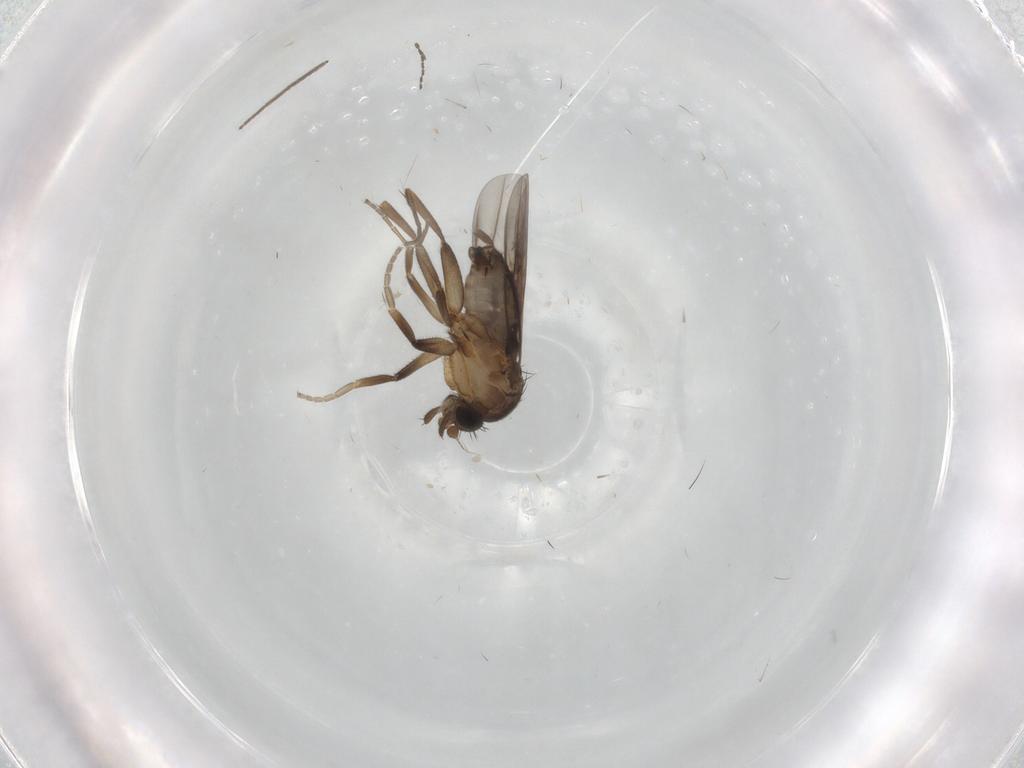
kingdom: Animalia
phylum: Arthropoda
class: Insecta
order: Diptera
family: Phoridae
